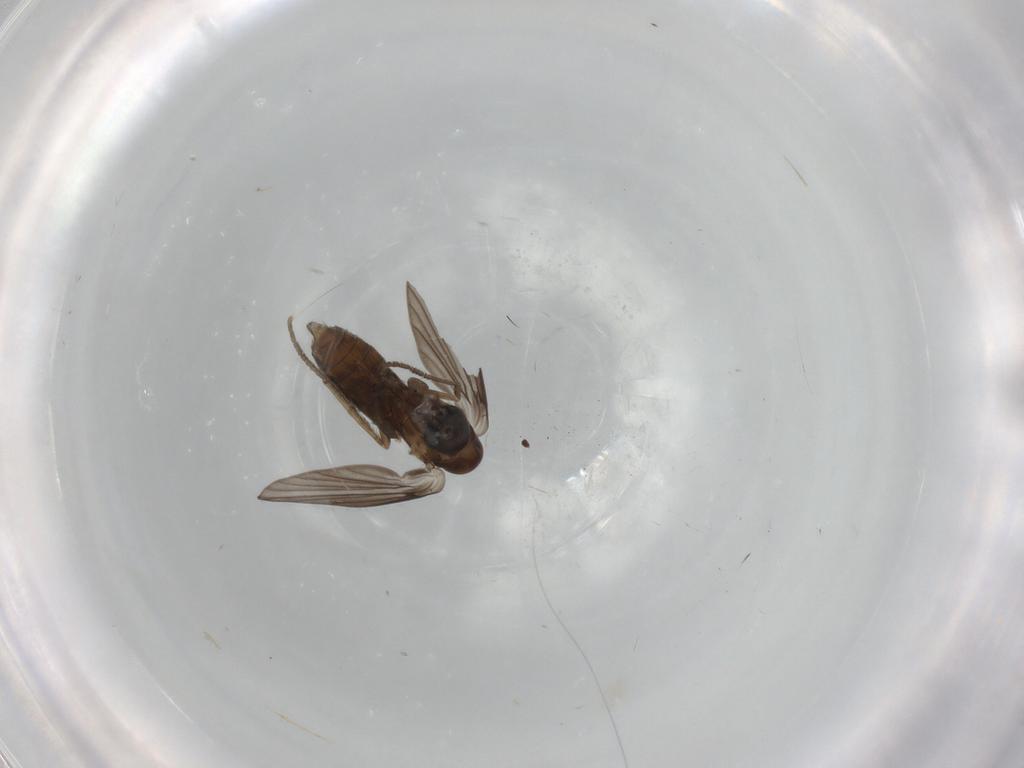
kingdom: Animalia
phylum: Arthropoda
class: Insecta
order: Diptera
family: Psychodidae
